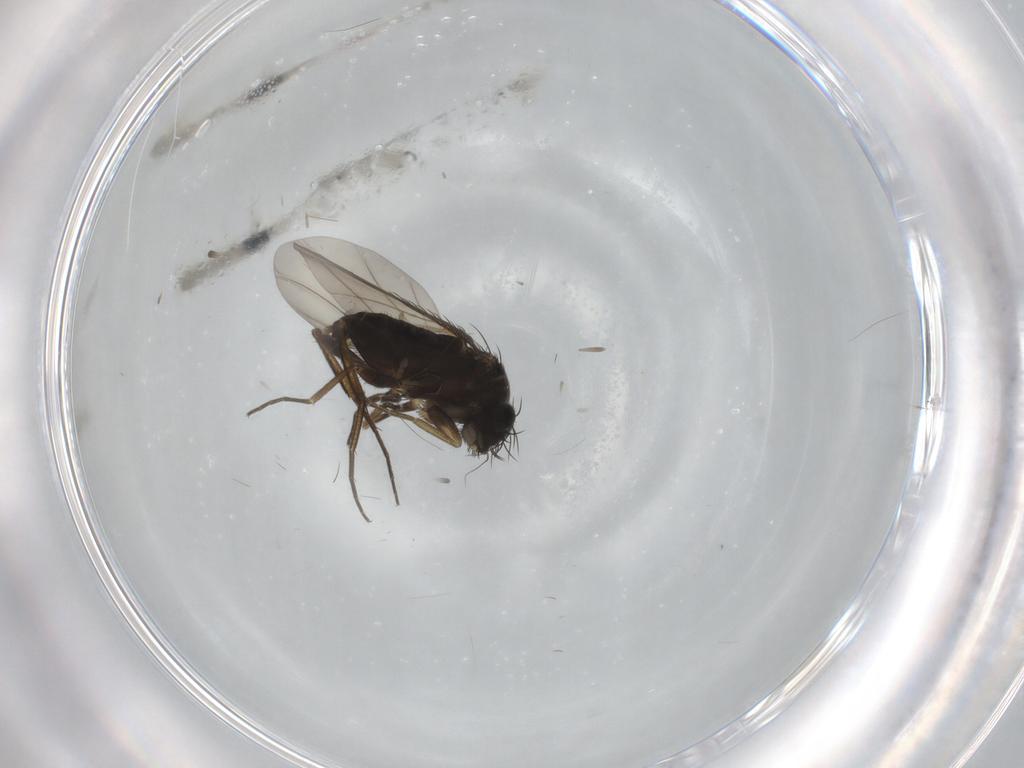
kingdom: Animalia
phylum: Arthropoda
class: Insecta
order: Diptera
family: Phoridae
